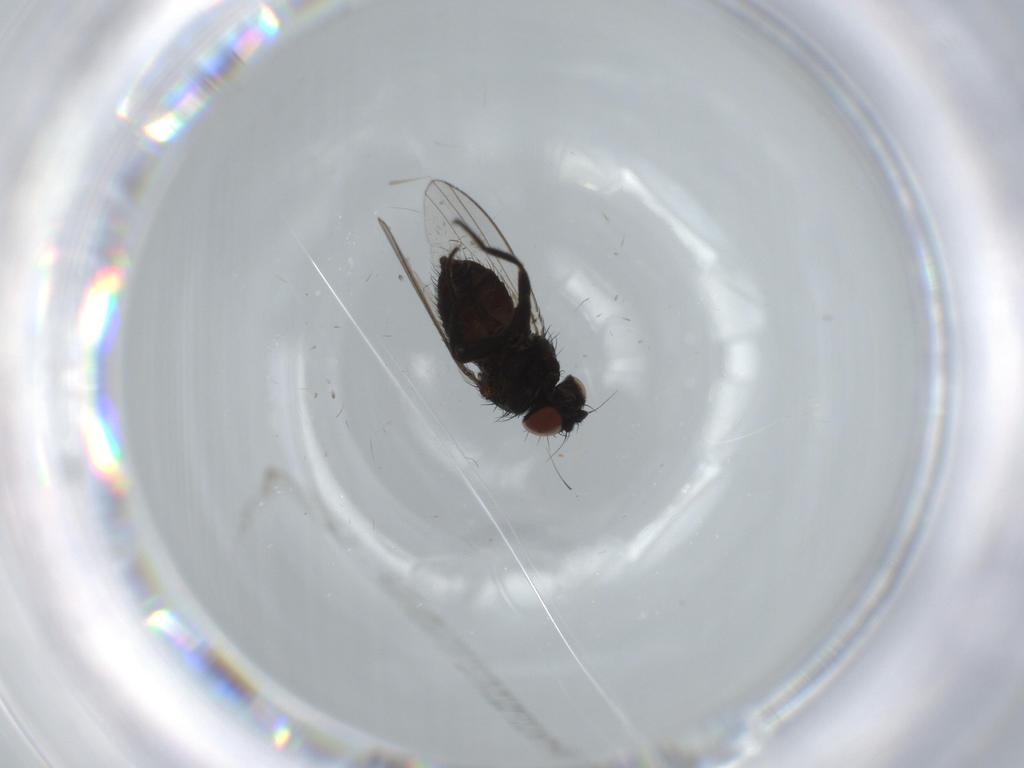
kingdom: Animalia
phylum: Arthropoda
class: Insecta
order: Diptera
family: Milichiidae
